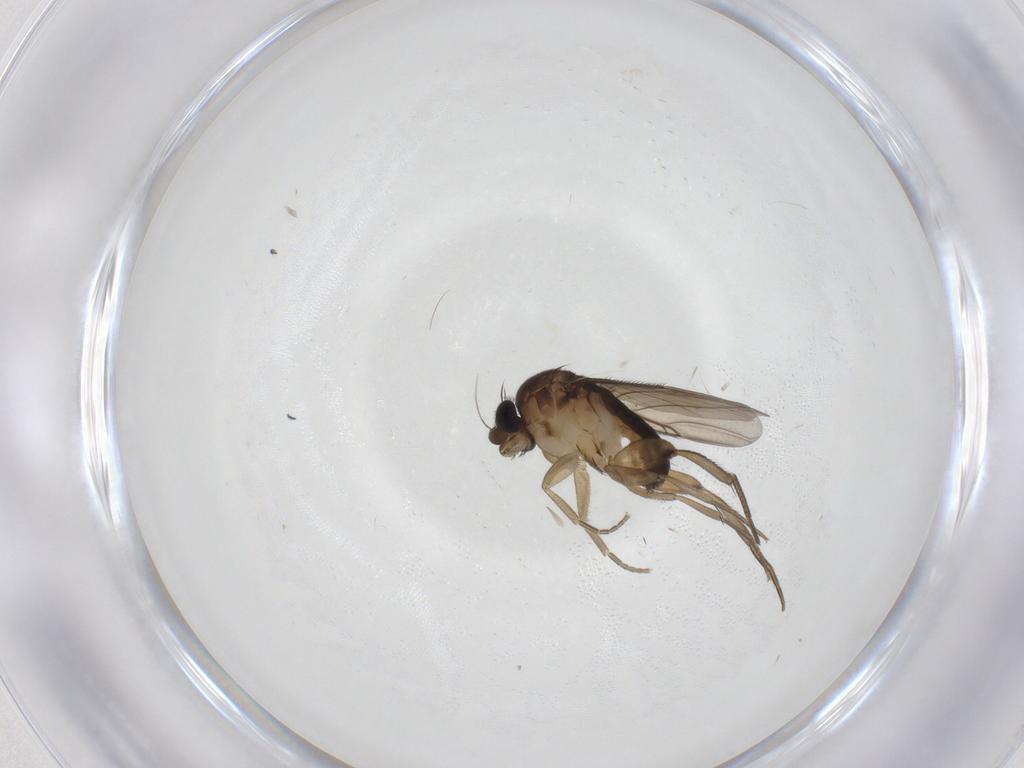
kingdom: Animalia
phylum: Arthropoda
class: Insecta
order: Diptera
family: Phoridae
